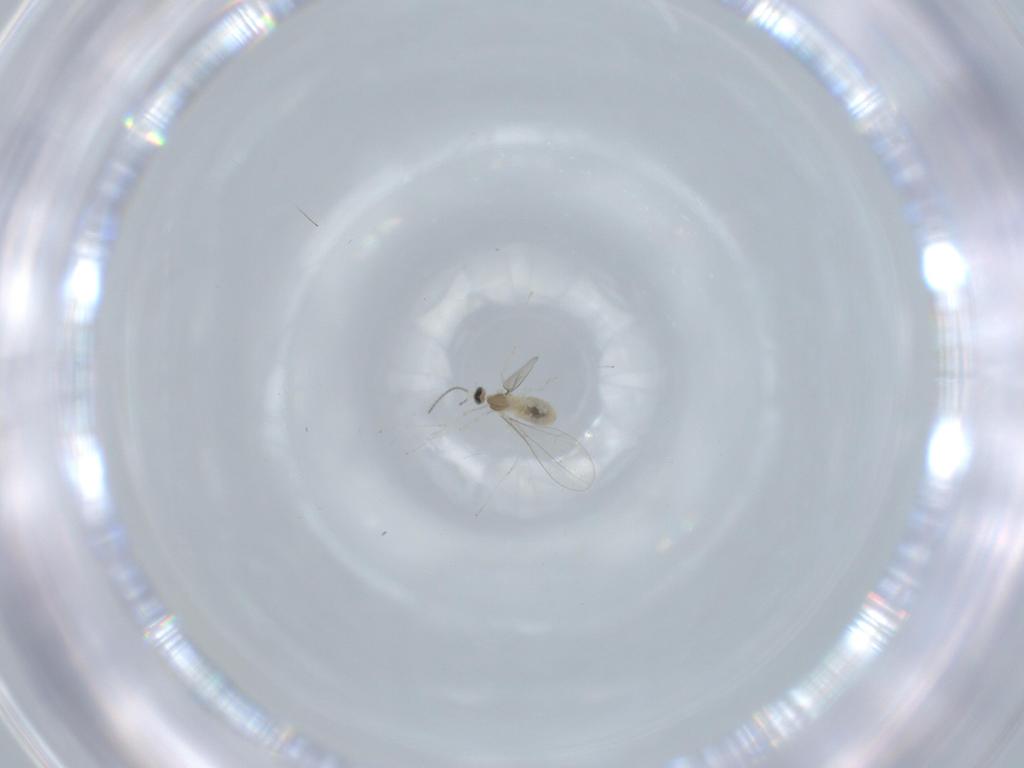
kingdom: Animalia
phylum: Arthropoda
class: Insecta
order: Diptera
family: Cecidomyiidae
